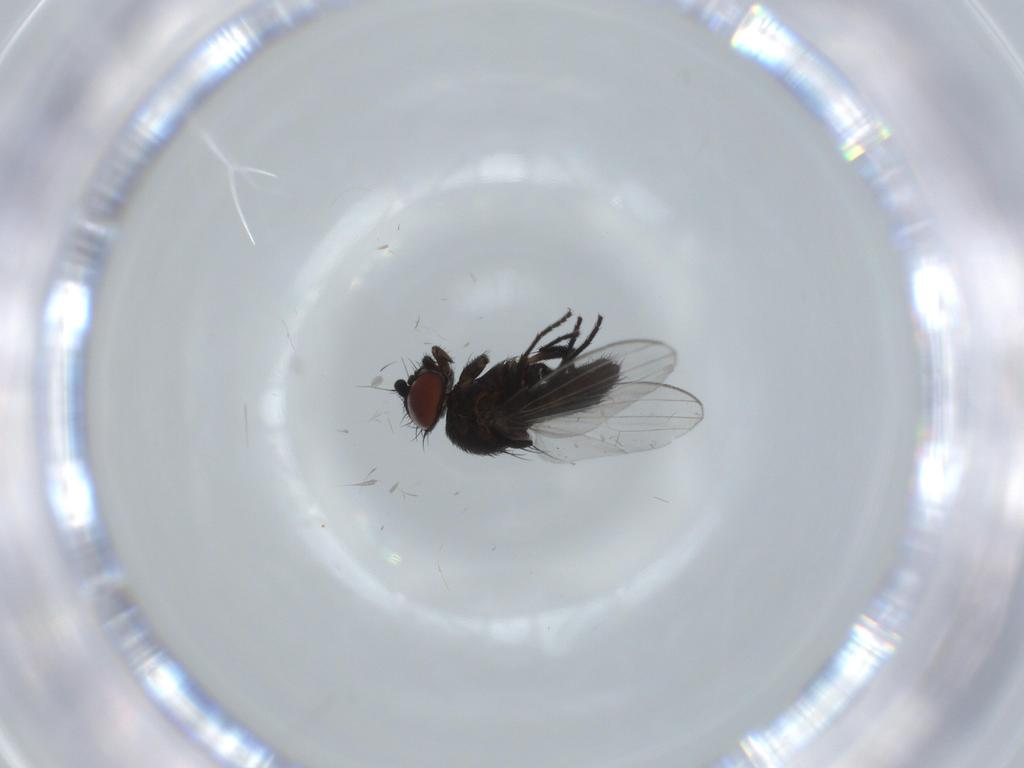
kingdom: Animalia
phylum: Arthropoda
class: Insecta
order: Diptera
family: Milichiidae
